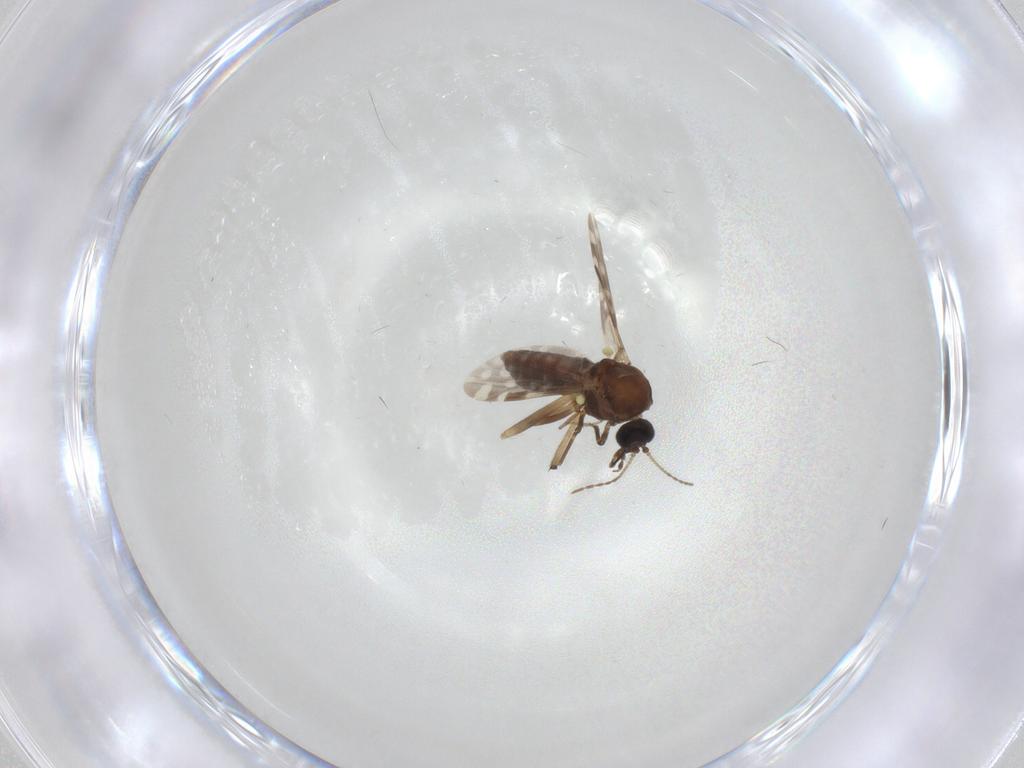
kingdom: Animalia
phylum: Arthropoda
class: Insecta
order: Diptera
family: Chironomidae
